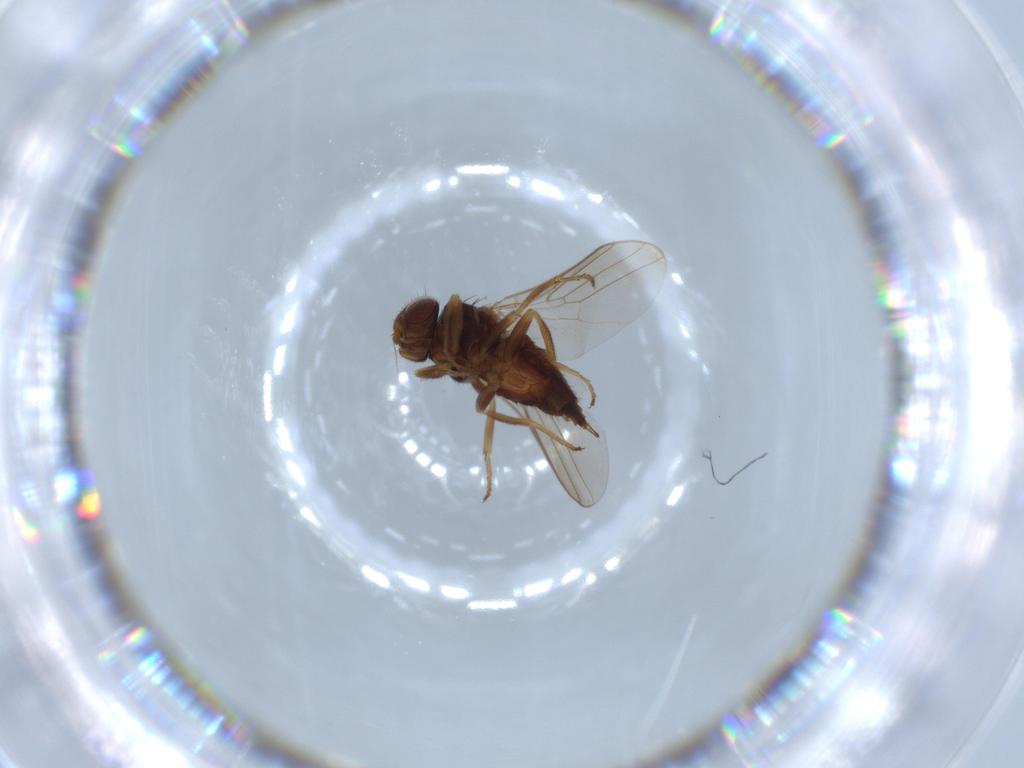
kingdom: Animalia
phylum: Arthropoda
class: Insecta
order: Diptera
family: Chloropidae
